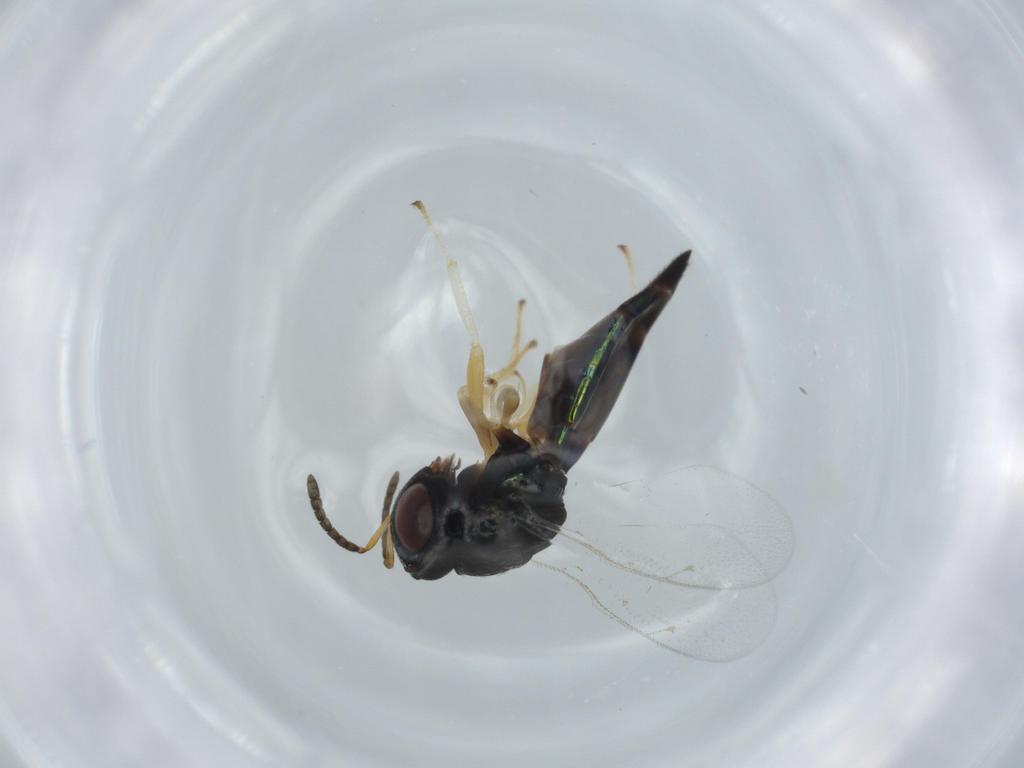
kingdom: Animalia
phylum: Arthropoda
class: Insecta
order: Hymenoptera
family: Pteromalidae
